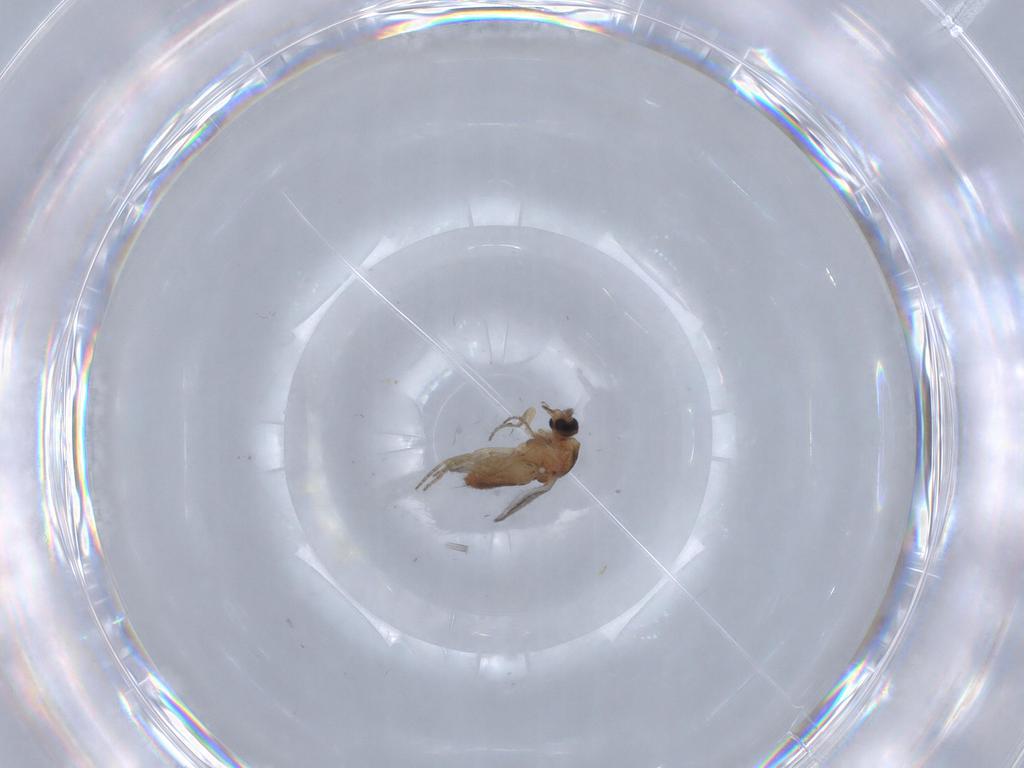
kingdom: Animalia
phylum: Arthropoda
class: Insecta
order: Diptera
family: Ceratopogonidae
